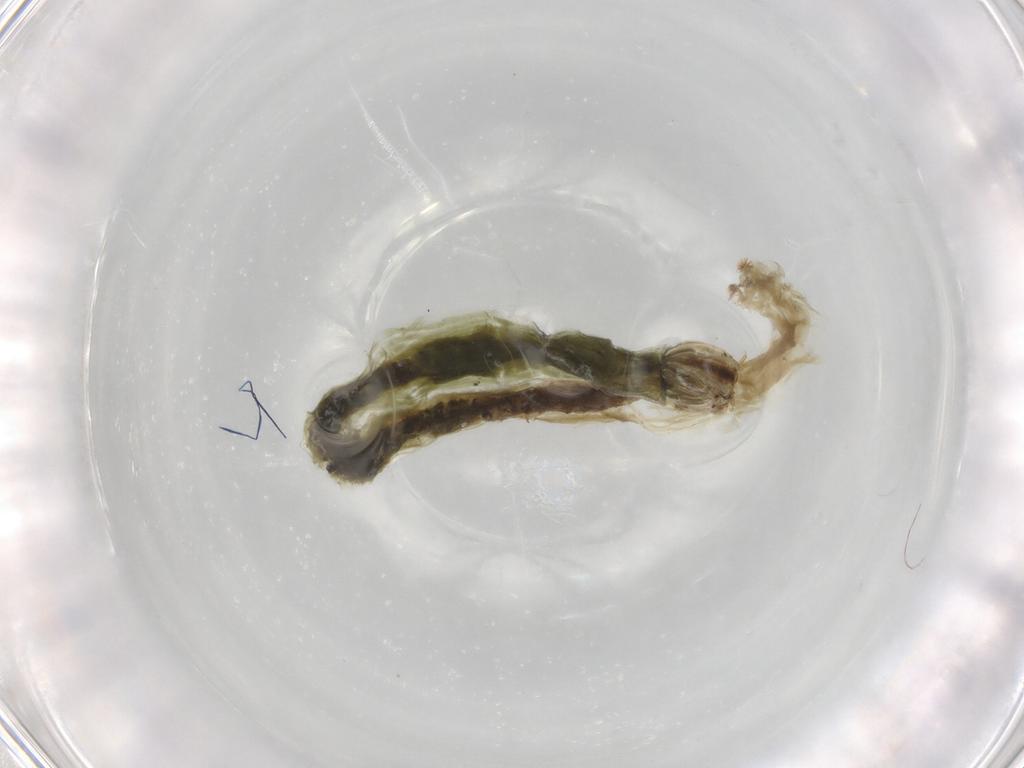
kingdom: Animalia
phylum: Arthropoda
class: Insecta
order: Diptera
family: Chironomidae
